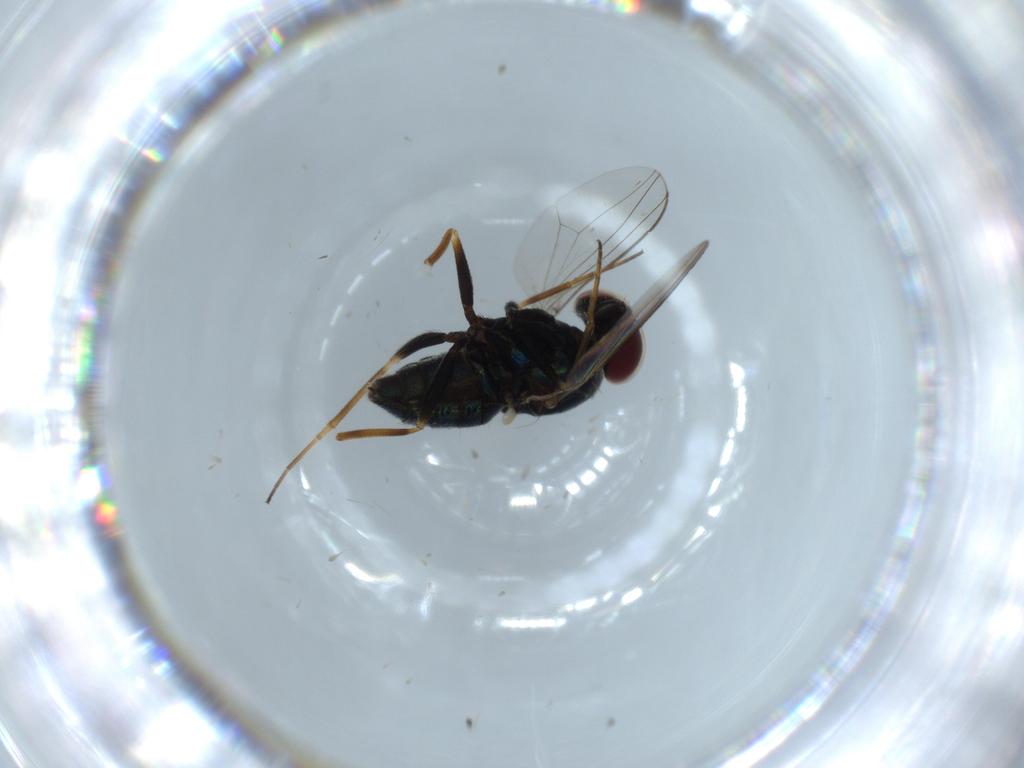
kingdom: Animalia
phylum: Arthropoda
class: Insecta
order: Diptera
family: Dolichopodidae
